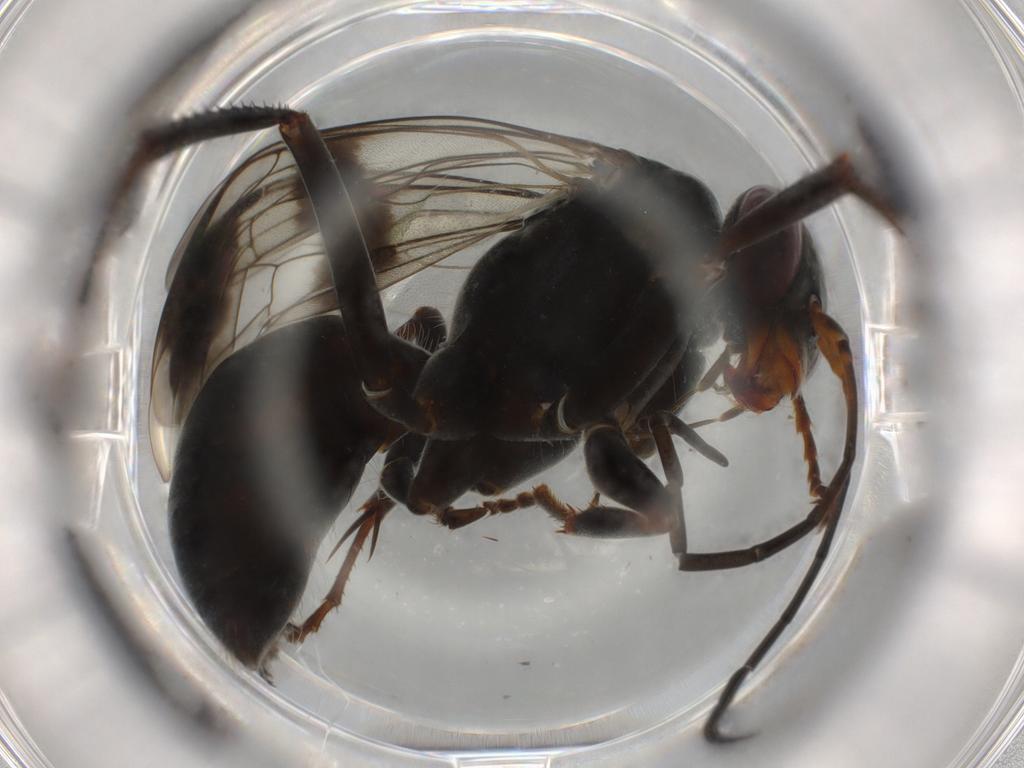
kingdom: Animalia
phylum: Arthropoda
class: Insecta
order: Hymenoptera
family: Pompilidae
